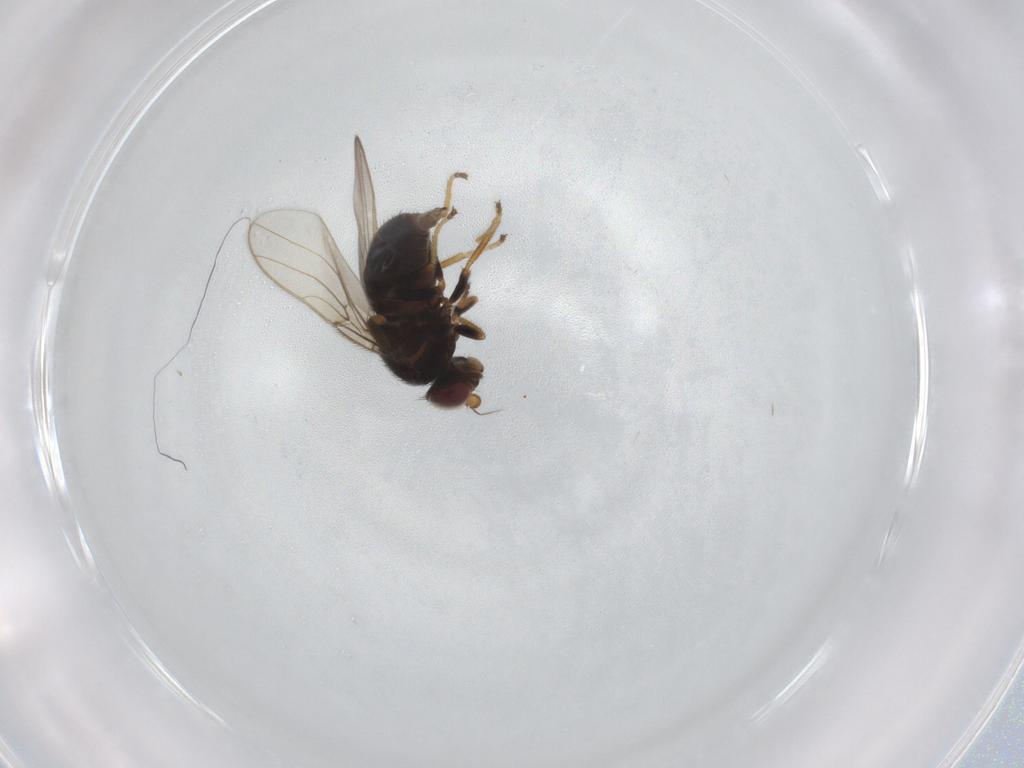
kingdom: Animalia
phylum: Arthropoda
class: Insecta
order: Diptera
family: Chloropidae
